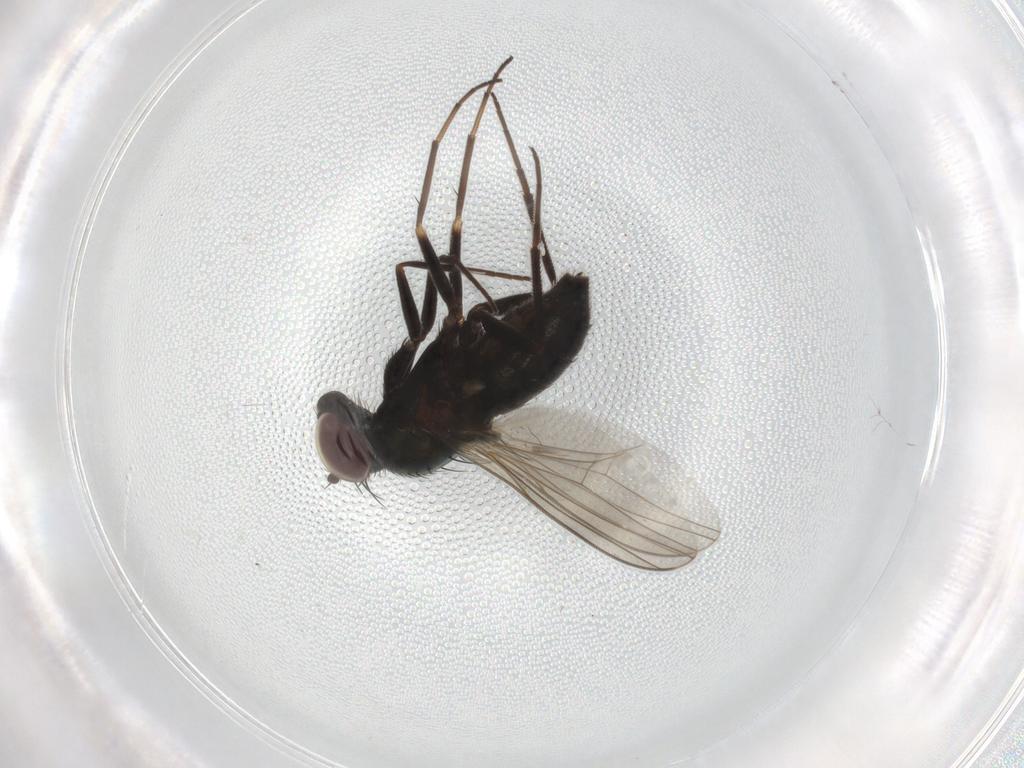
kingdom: Animalia
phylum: Arthropoda
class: Insecta
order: Diptera
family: Dolichopodidae
